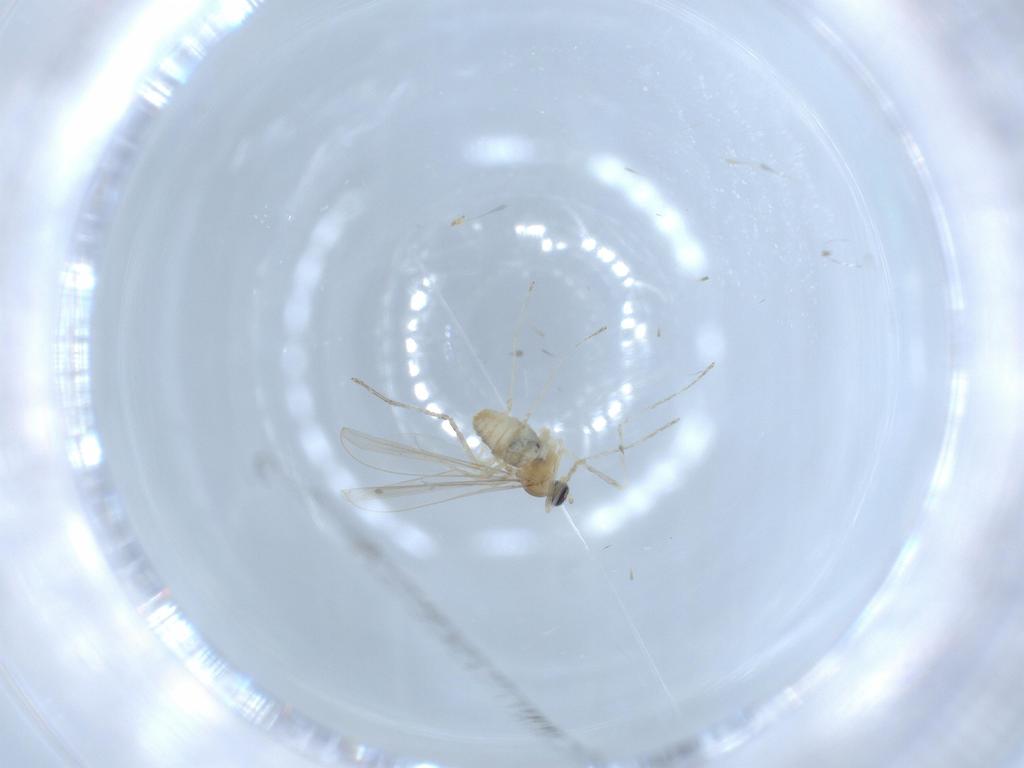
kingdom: Animalia
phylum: Arthropoda
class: Insecta
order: Diptera
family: Cecidomyiidae
